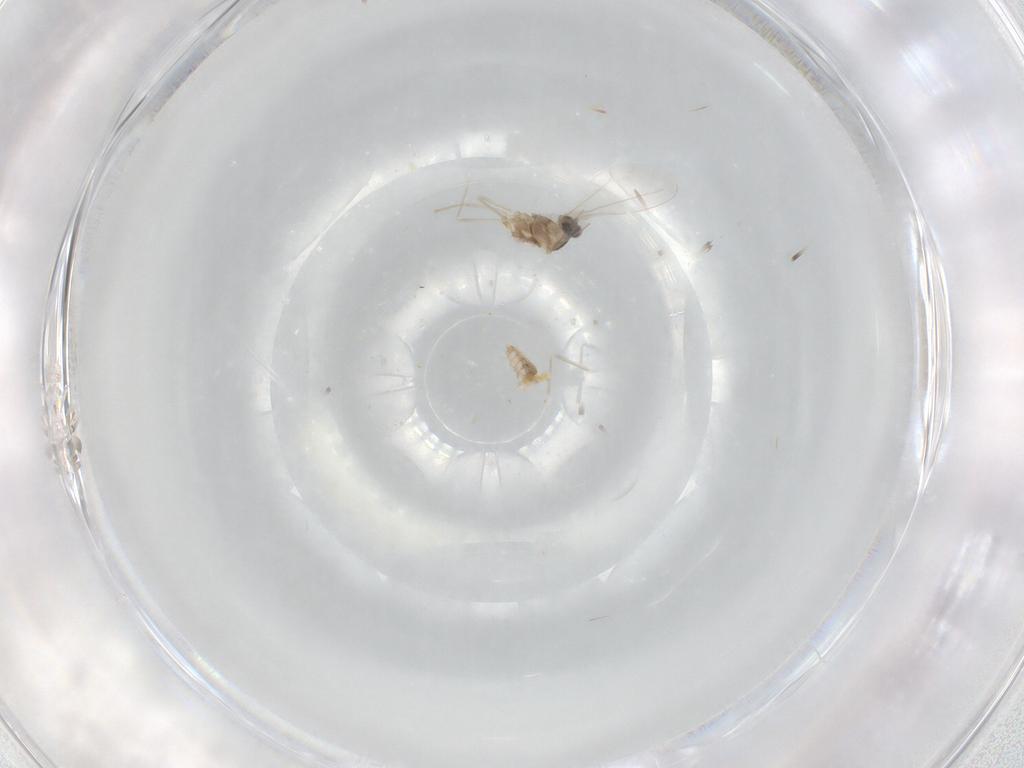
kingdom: Animalia
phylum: Arthropoda
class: Insecta
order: Diptera
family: Cecidomyiidae
